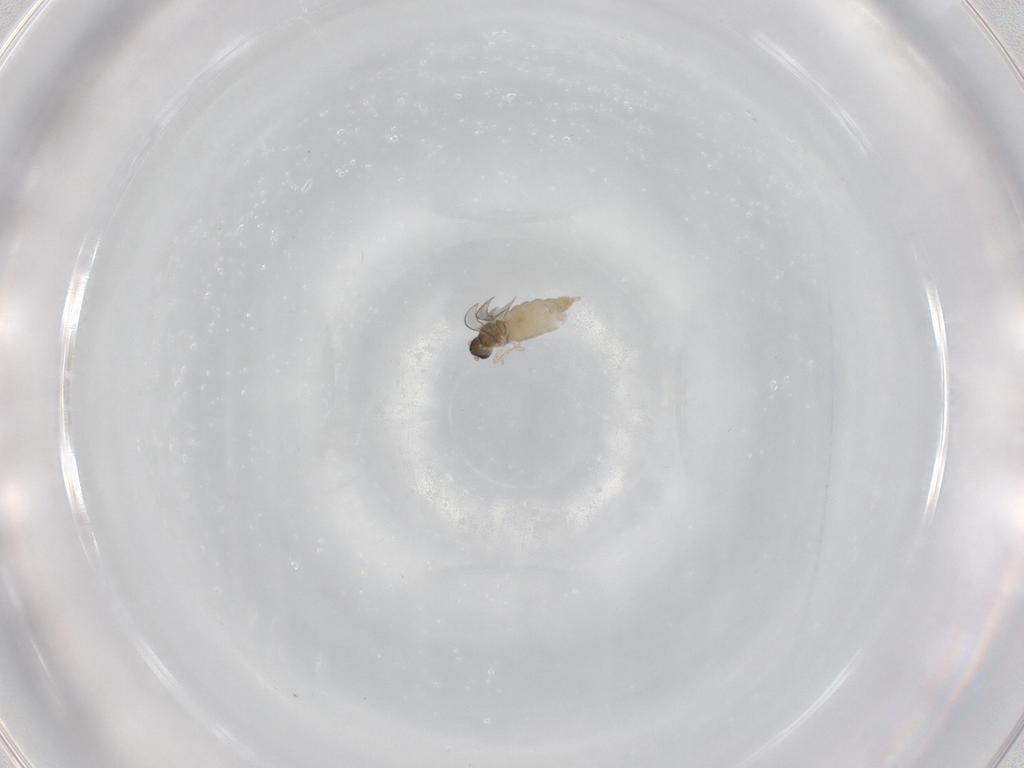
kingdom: Animalia
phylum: Arthropoda
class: Insecta
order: Diptera
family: Cecidomyiidae
